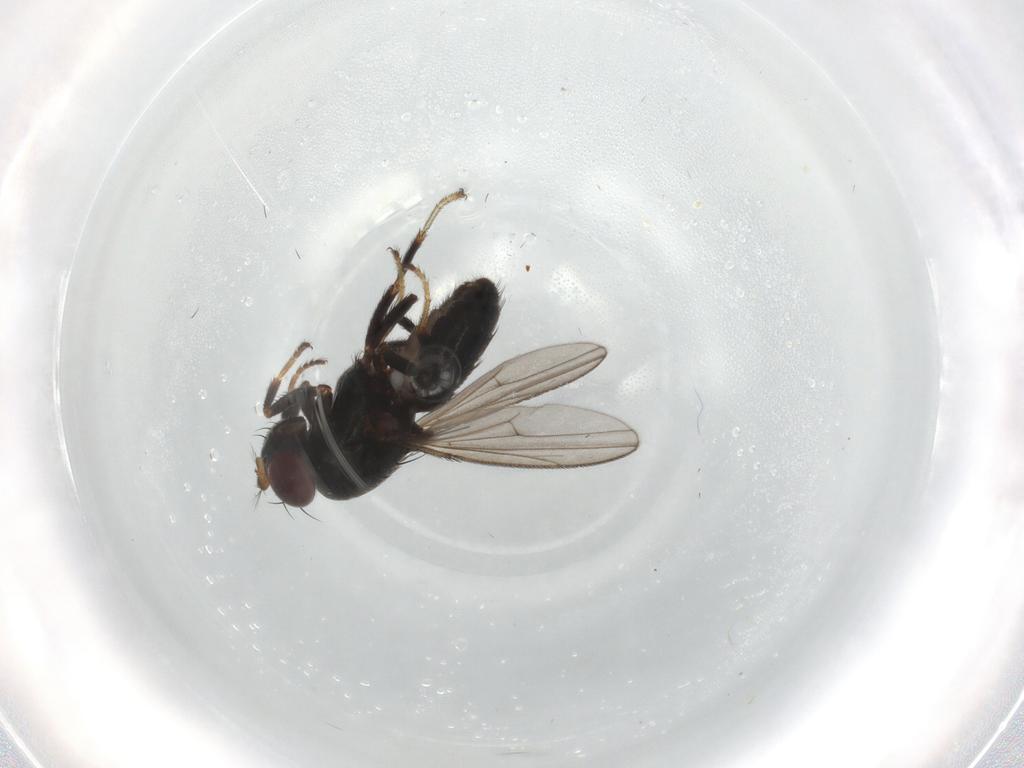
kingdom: Animalia
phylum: Arthropoda
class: Insecta
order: Diptera
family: Ephydridae
